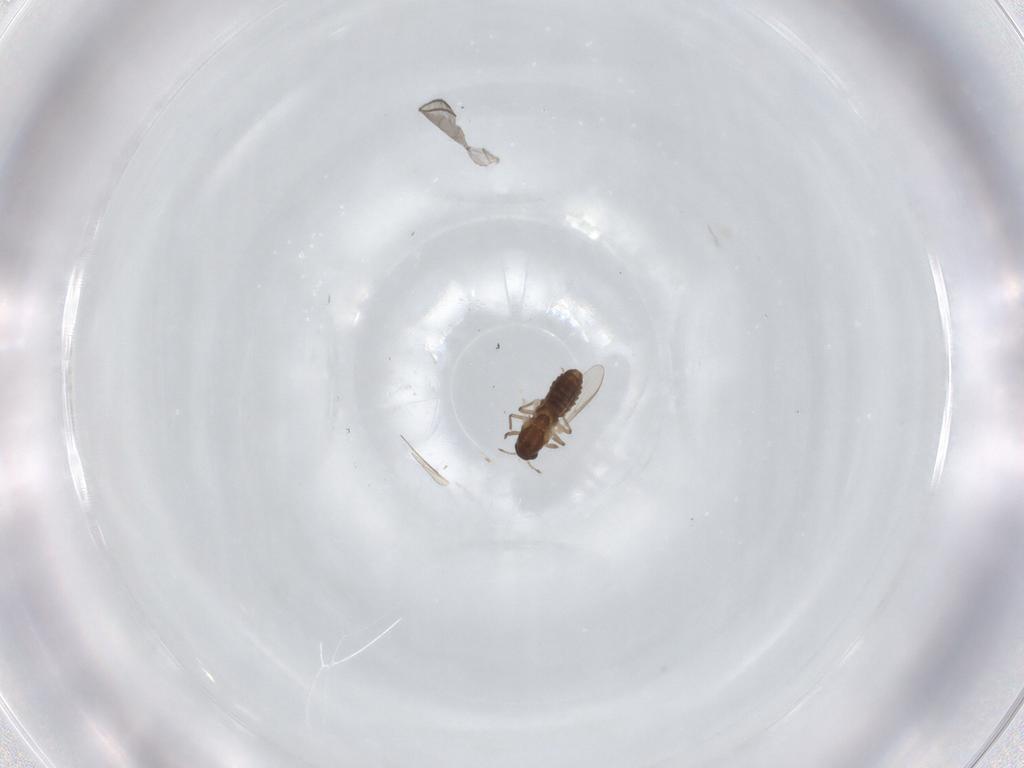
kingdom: Animalia
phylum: Arthropoda
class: Insecta
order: Diptera
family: Chironomidae
